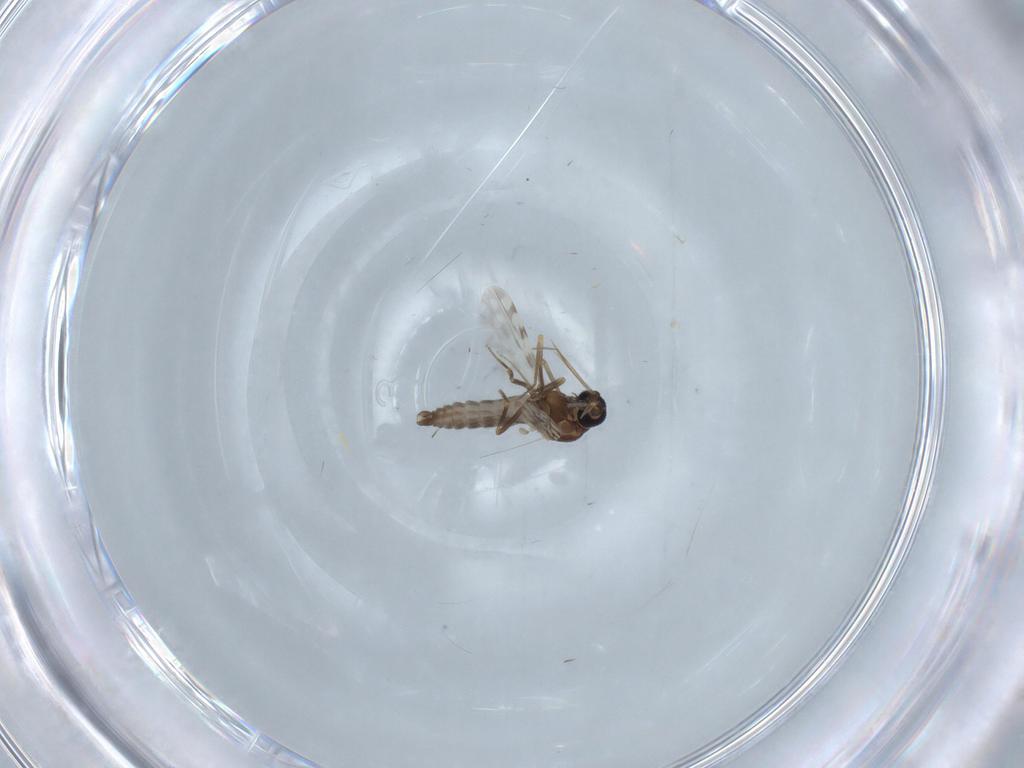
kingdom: Animalia
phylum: Arthropoda
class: Insecta
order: Diptera
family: Ceratopogonidae
